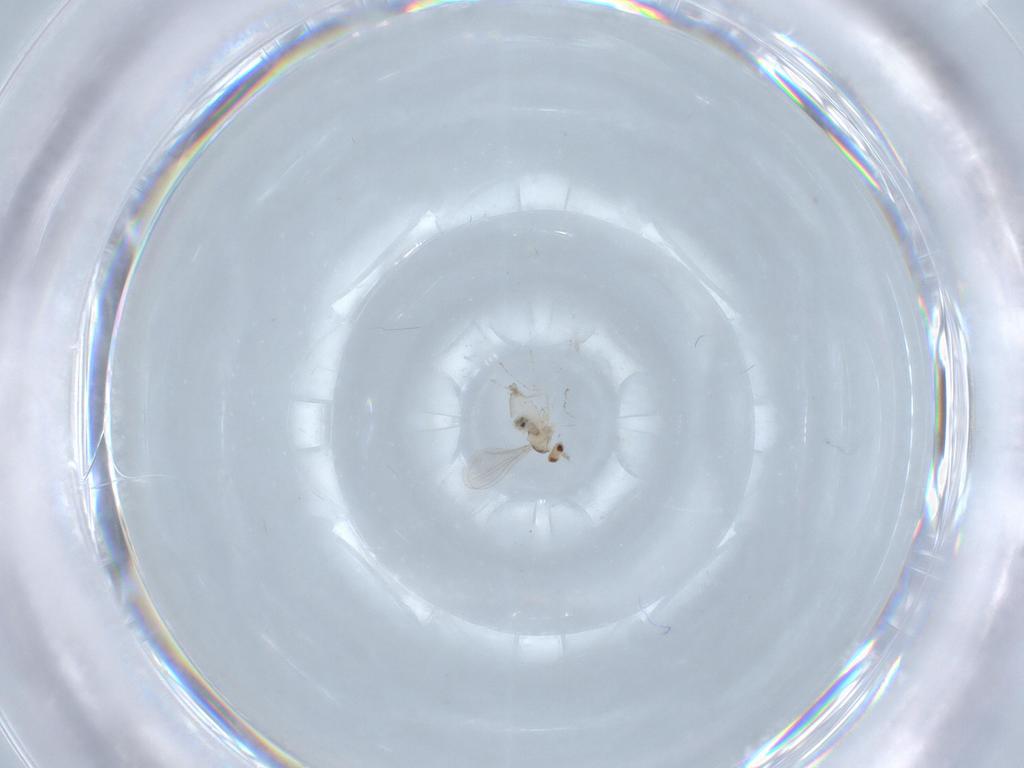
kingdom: Animalia
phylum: Arthropoda
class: Insecta
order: Diptera
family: Cecidomyiidae
